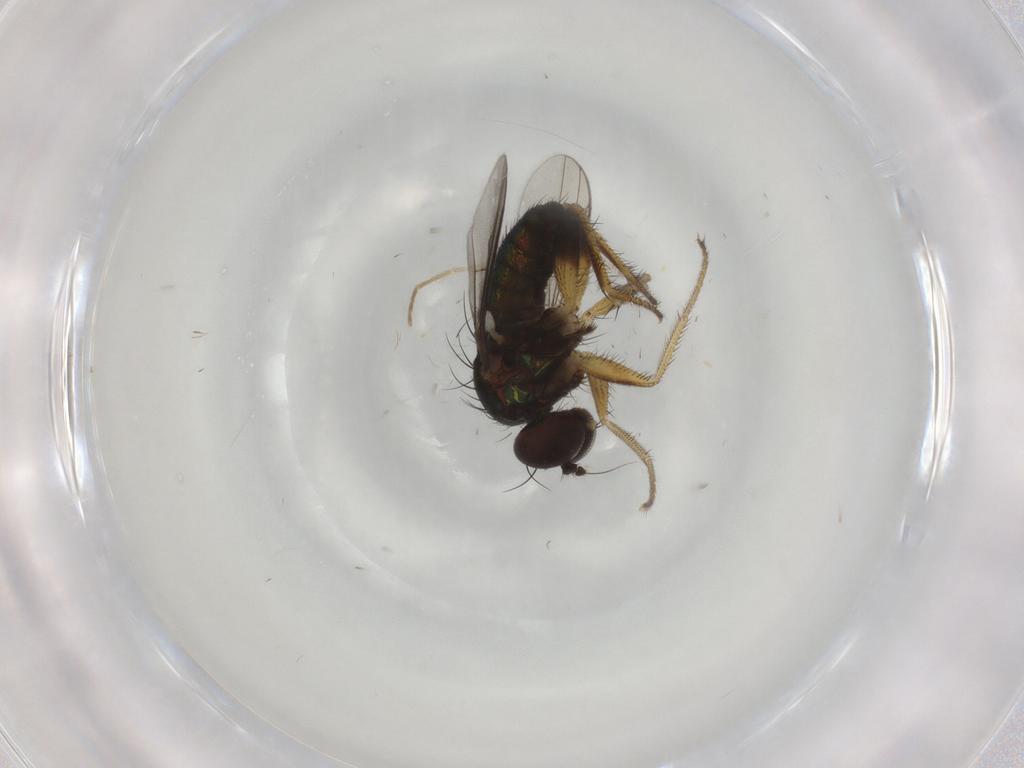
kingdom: Animalia
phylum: Arthropoda
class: Insecta
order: Diptera
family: Dolichopodidae
